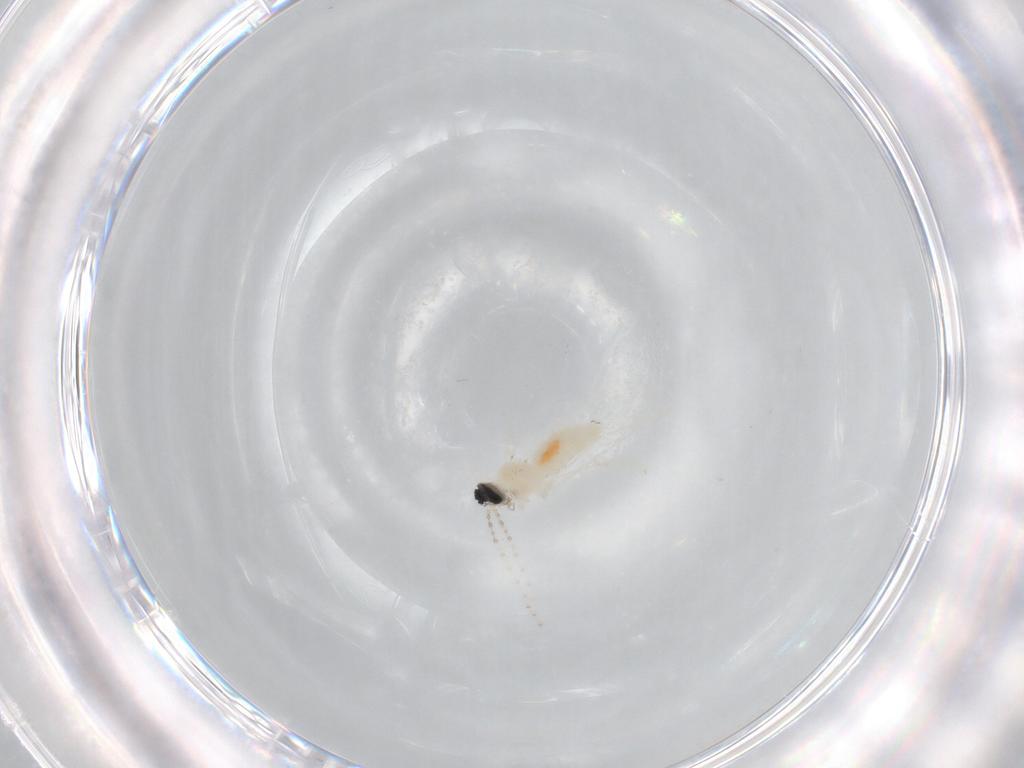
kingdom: Animalia
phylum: Arthropoda
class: Insecta
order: Diptera
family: Cecidomyiidae
